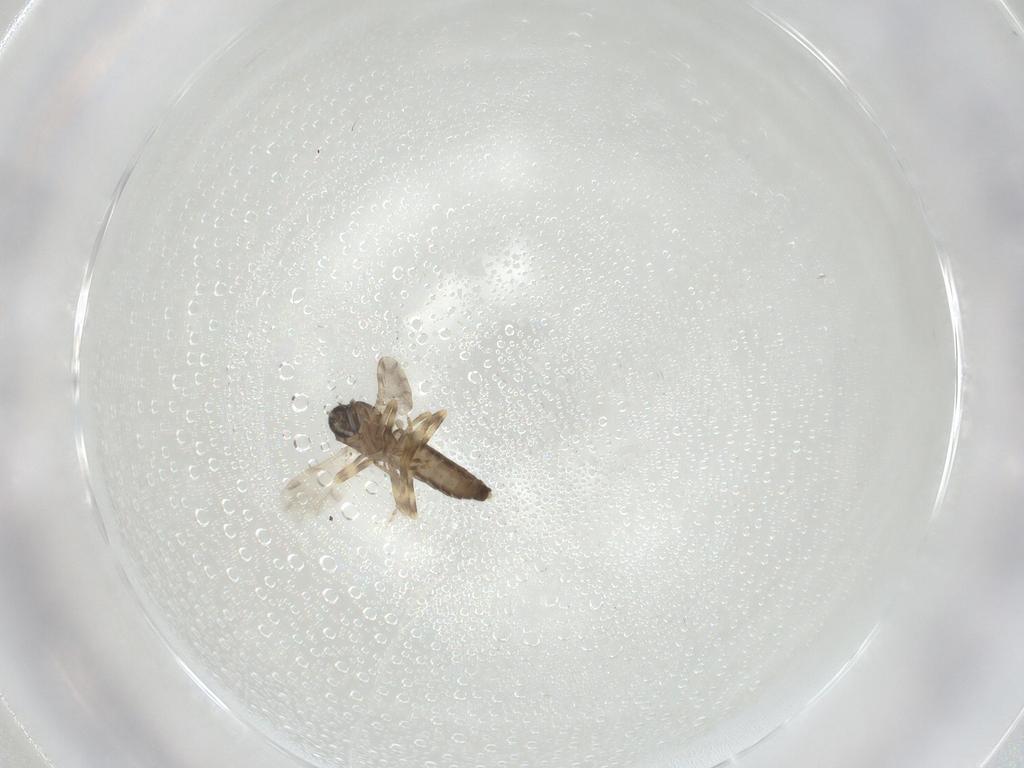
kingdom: Animalia
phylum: Arthropoda
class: Insecta
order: Diptera
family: Ceratopogonidae
